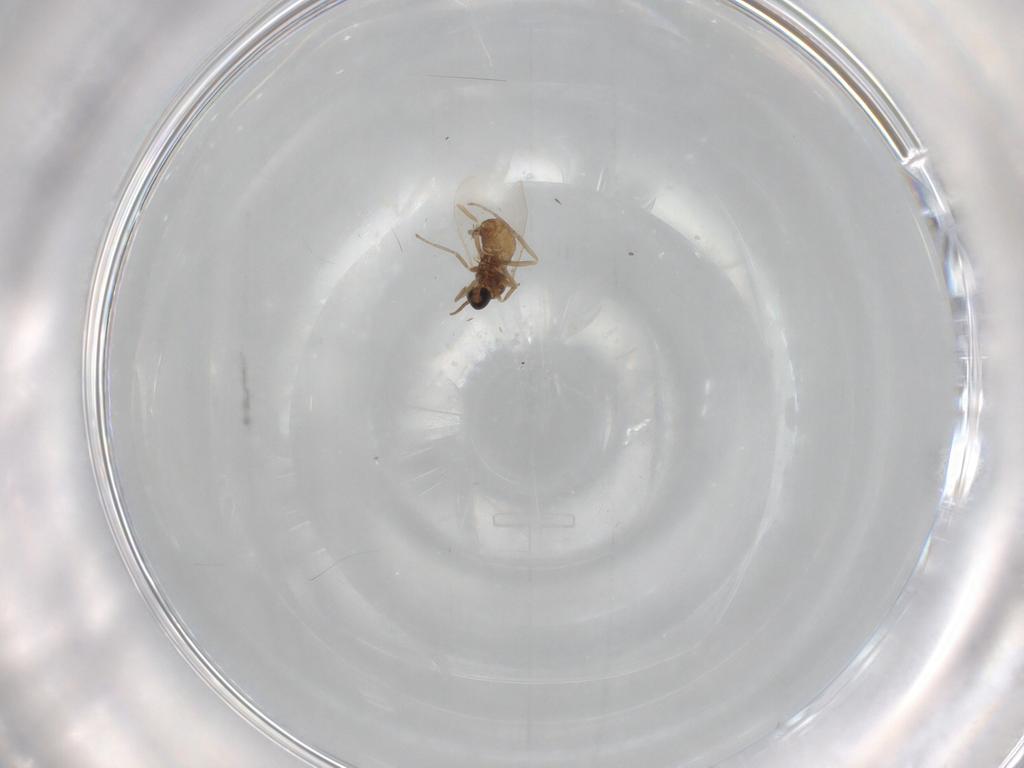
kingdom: Animalia
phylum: Arthropoda
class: Insecta
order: Diptera
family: Cecidomyiidae
